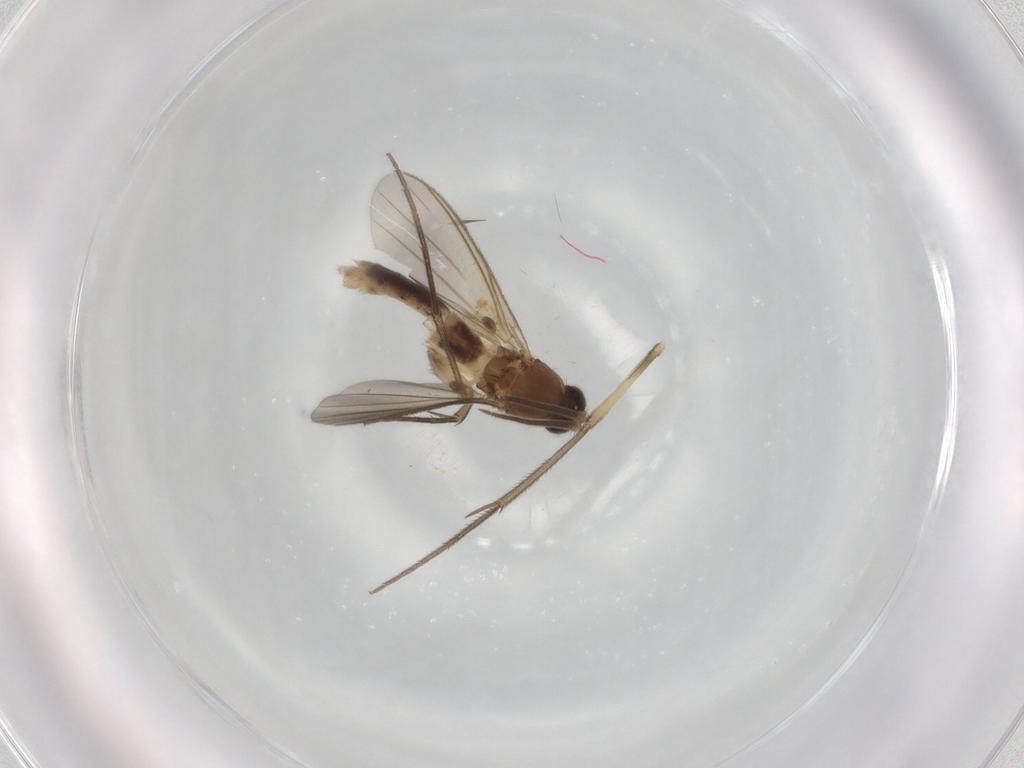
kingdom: Animalia
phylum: Arthropoda
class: Insecta
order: Diptera
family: Mycetophilidae
